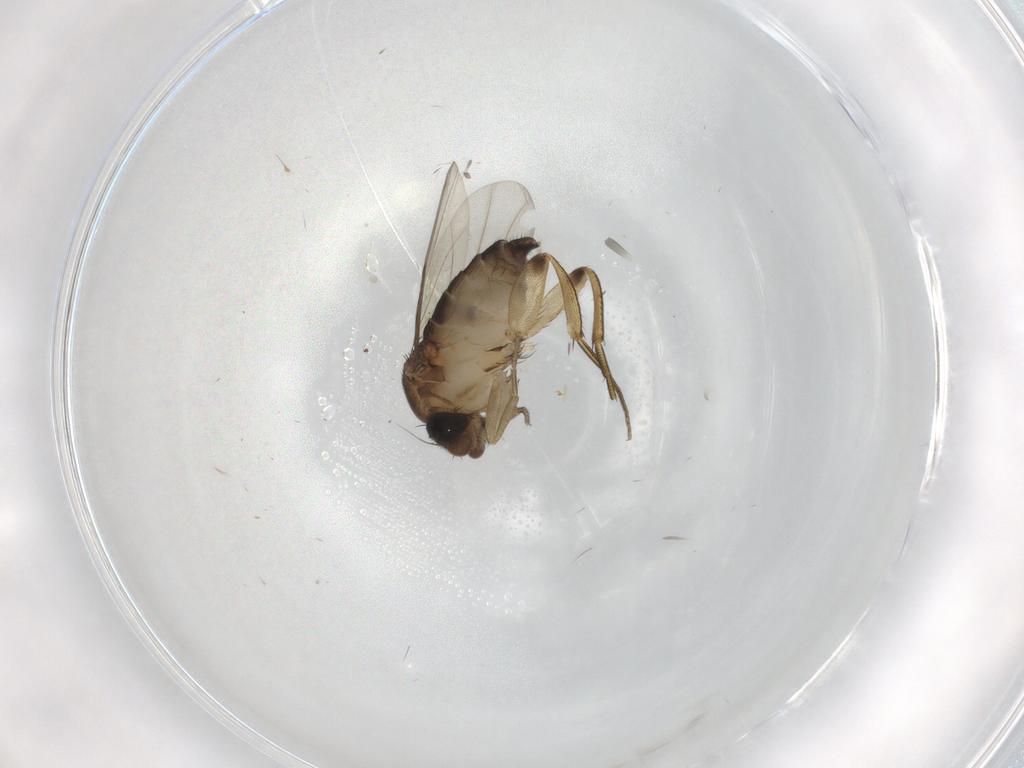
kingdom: Animalia
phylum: Arthropoda
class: Insecta
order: Diptera
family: Phoridae
